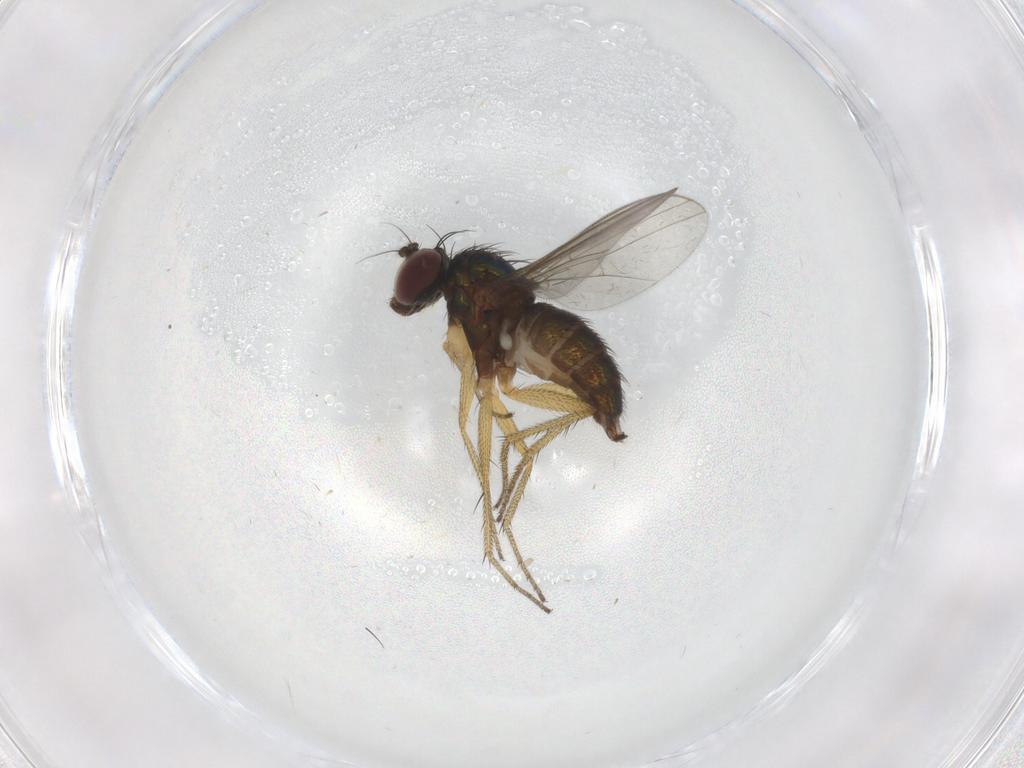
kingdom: Animalia
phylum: Arthropoda
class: Insecta
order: Diptera
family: Dolichopodidae
